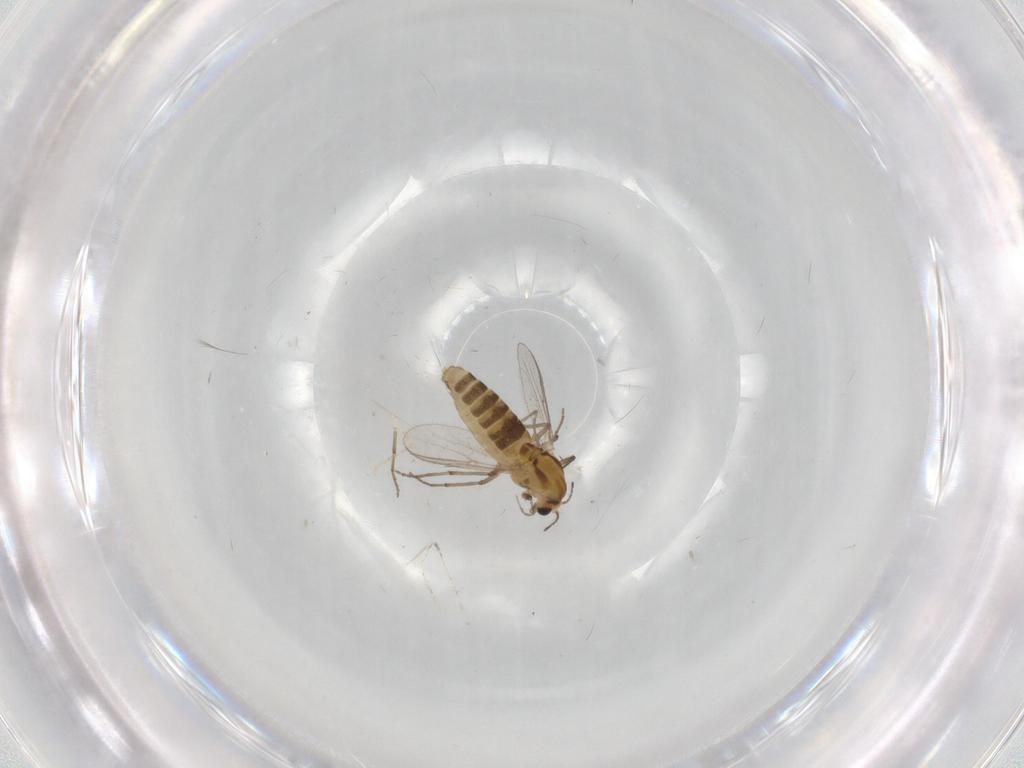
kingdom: Animalia
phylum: Arthropoda
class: Insecta
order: Diptera
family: Chironomidae
